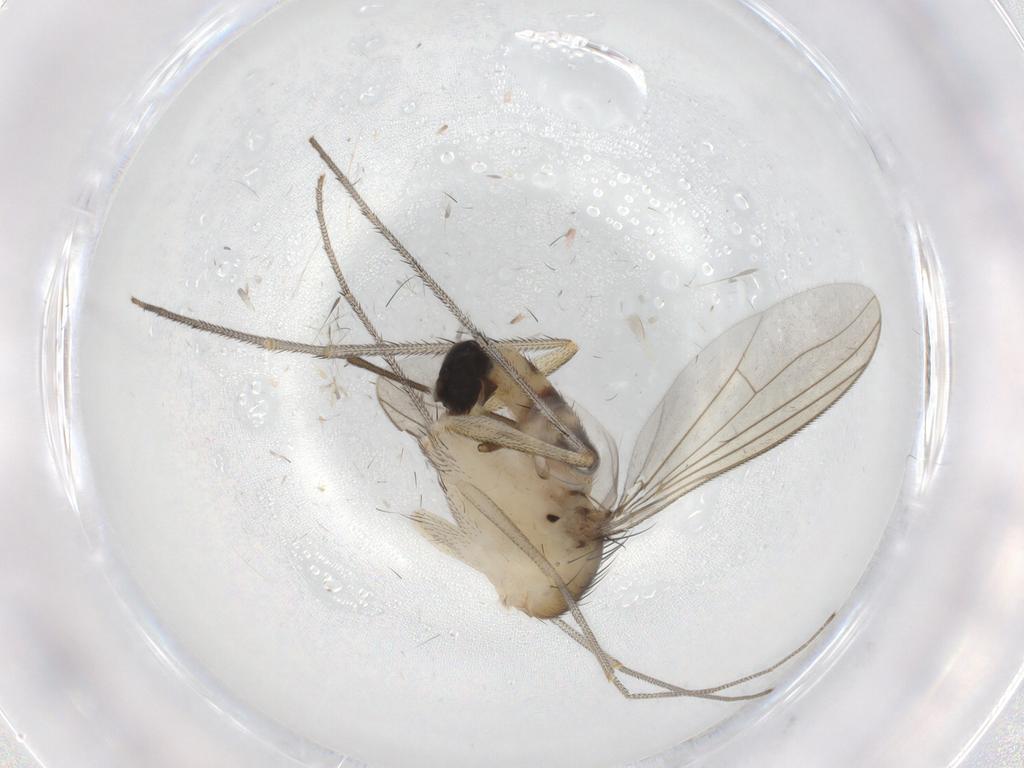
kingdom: Animalia
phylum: Arthropoda
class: Insecta
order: Diptera
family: Ditomyiidae
